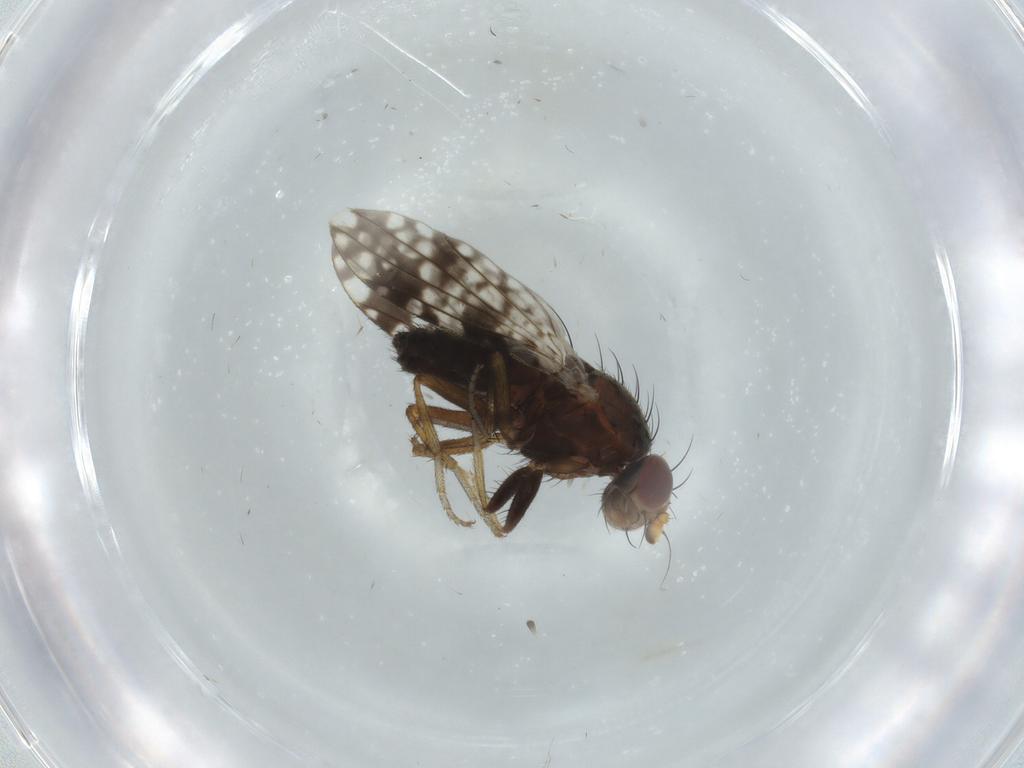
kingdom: Animalia
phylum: Arthropoda
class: Insecta
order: Diptera
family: Tephritidae
